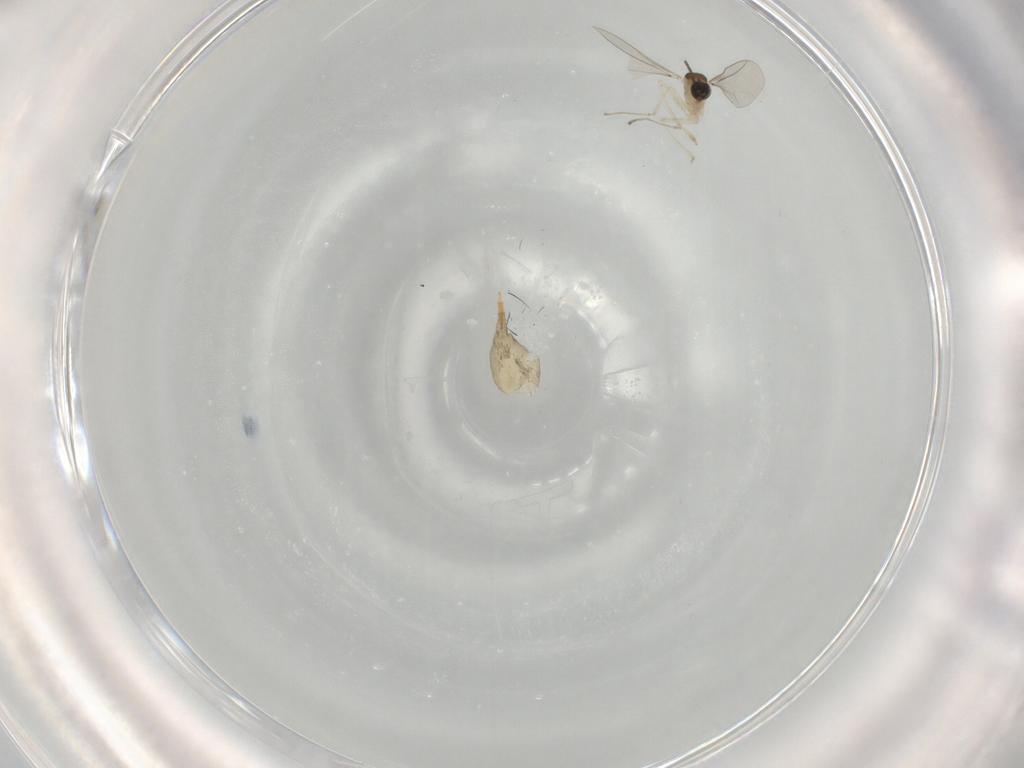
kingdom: Animalia
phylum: Arthropoda
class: Insecta
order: Diptera
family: Cecidomyiidae
